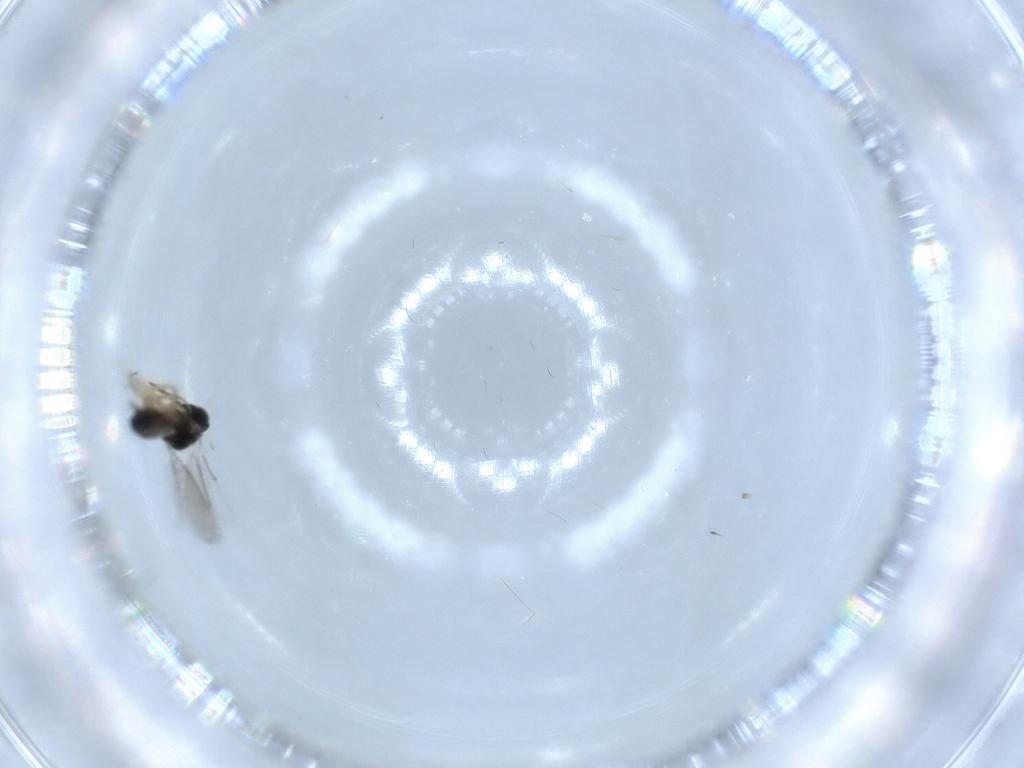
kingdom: Animalia
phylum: Arthropoda
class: Insecta
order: Hymenoptera
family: Eulophidae
